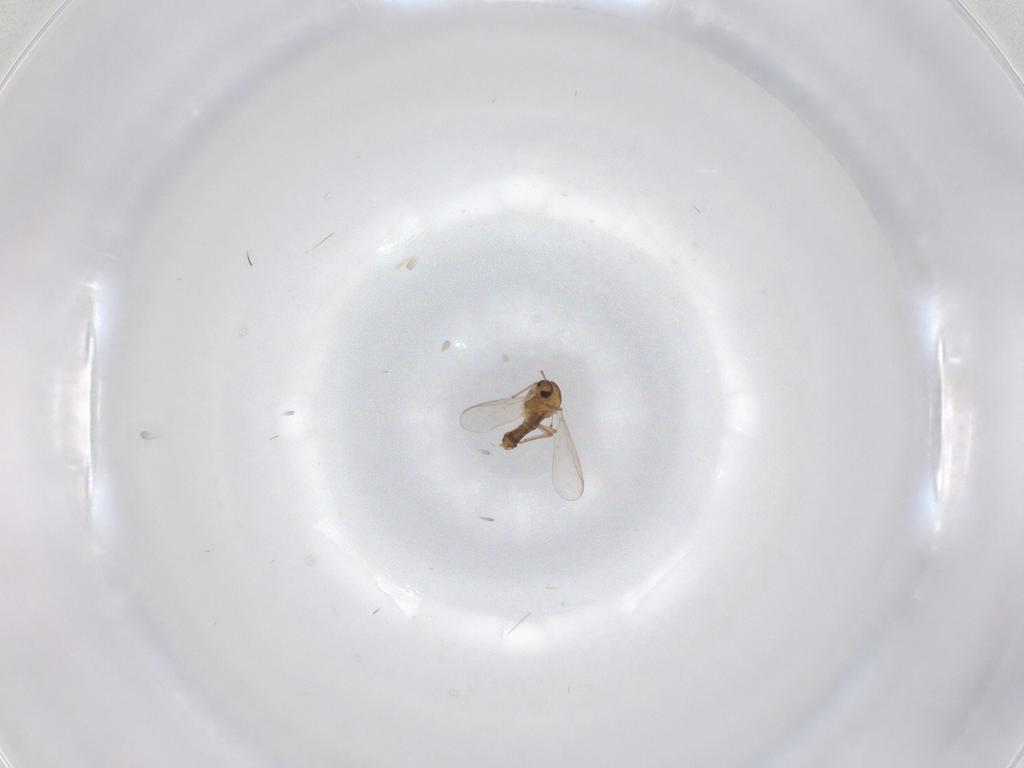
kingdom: Animalia
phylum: Arthropoda
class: Insecta
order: Diptera
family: Chironomidae
